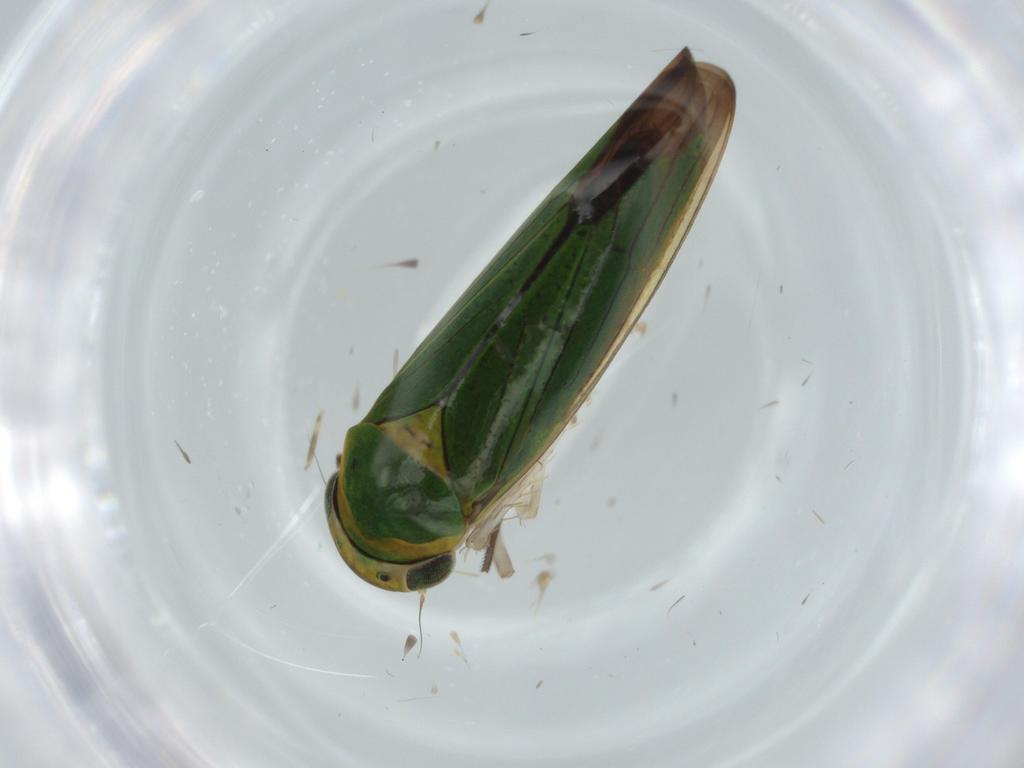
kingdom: Animalia
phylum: Arthropoda
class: Insecta
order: Hemiptera
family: Cicadellidae
